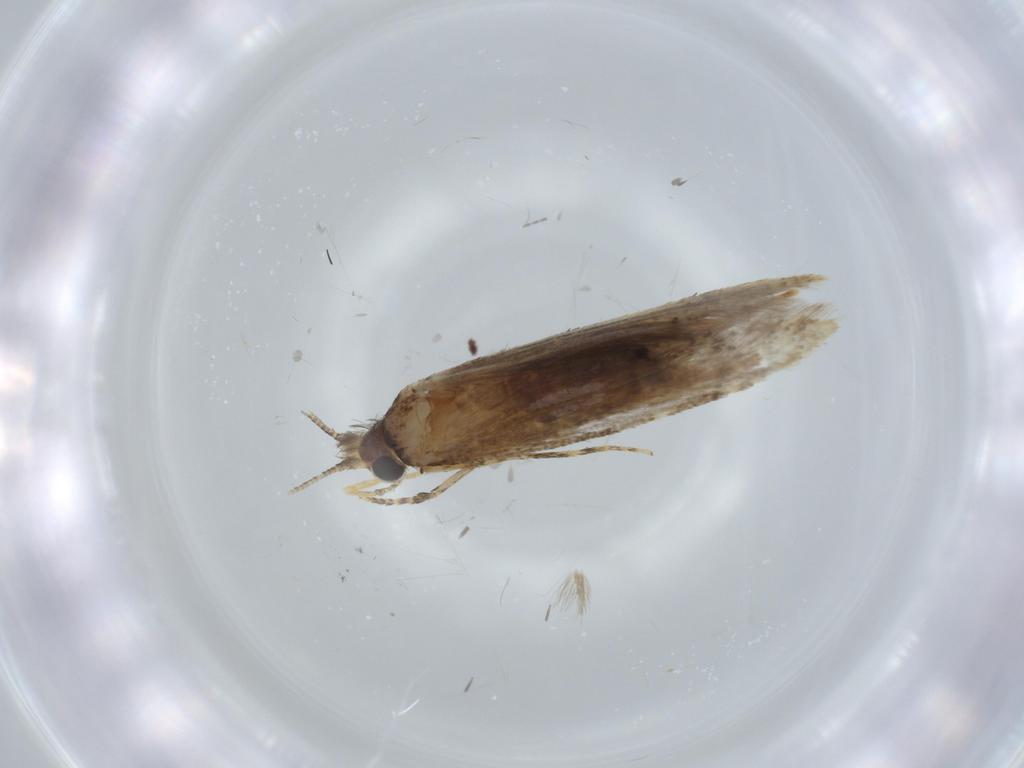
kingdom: Animalia
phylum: Arthropoda
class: Insecta
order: Lepidoptera
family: Tineidae
